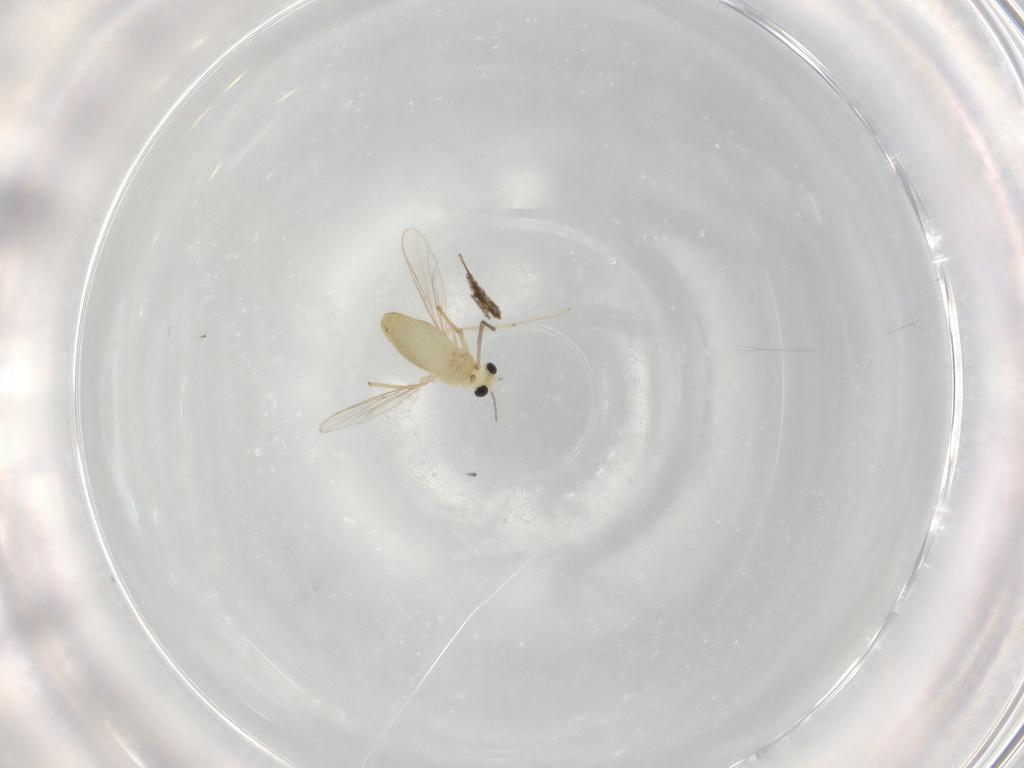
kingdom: Animalia
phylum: Arthropoda
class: Insecta
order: Diptera
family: Chironomidae
